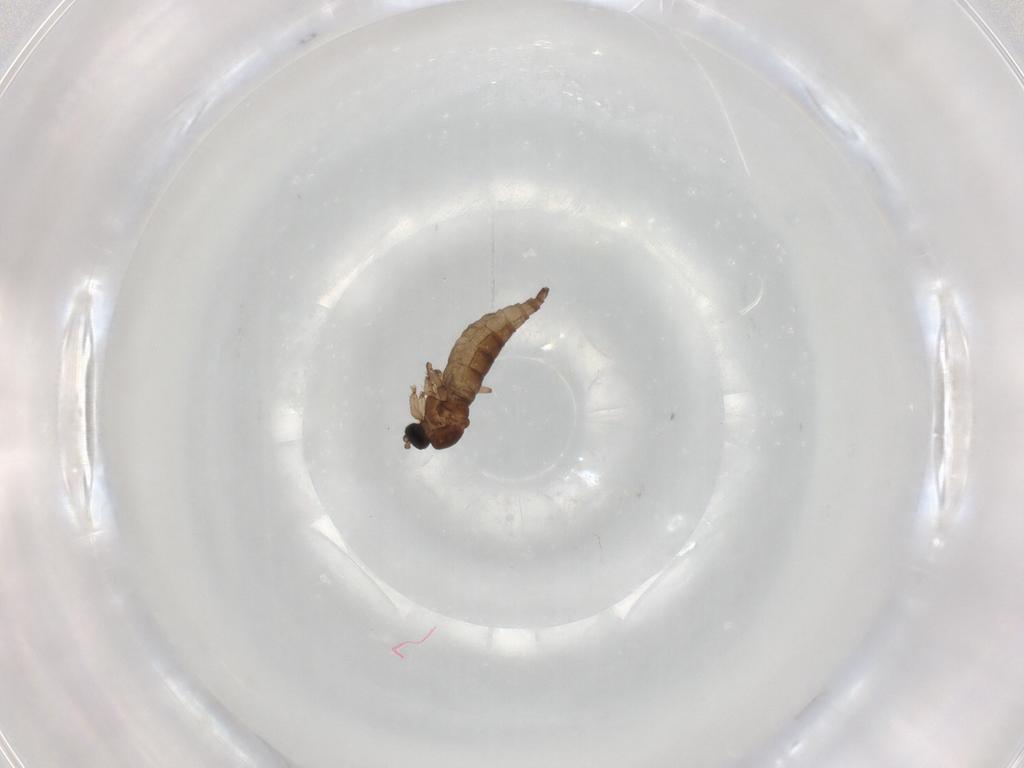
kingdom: Animalia
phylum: Arthropoda
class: Insecta
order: Diptera
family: Psychodidae
